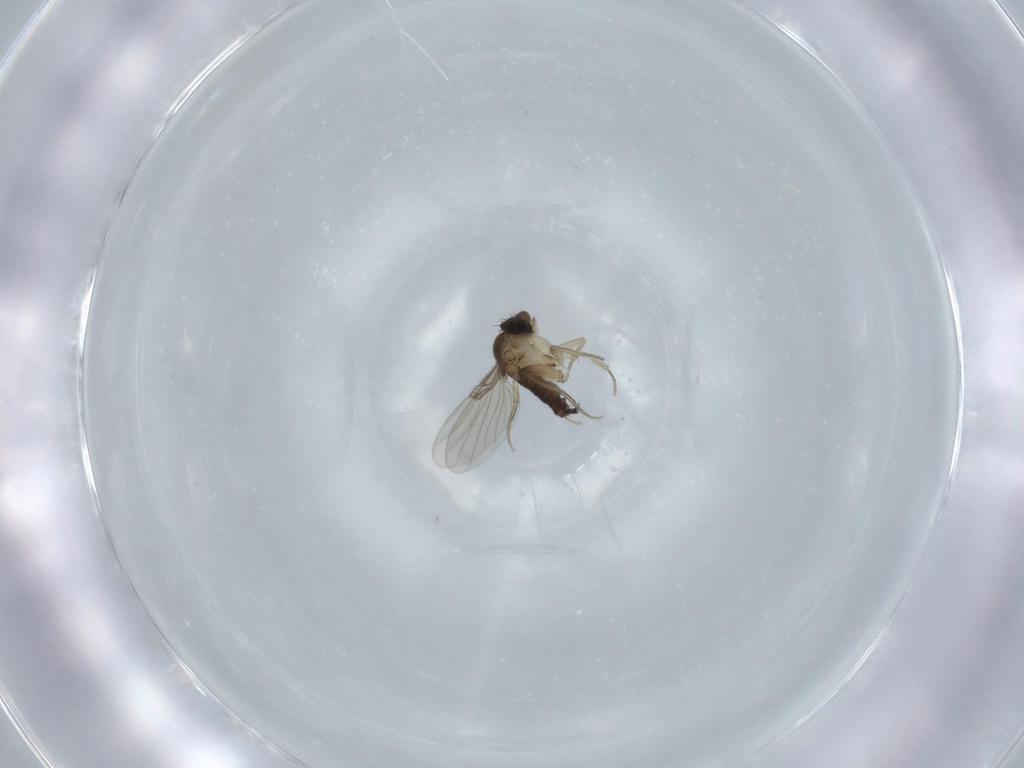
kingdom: Animalia
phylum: Arthropoda
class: Insecta
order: Diptera
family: Phoridae
